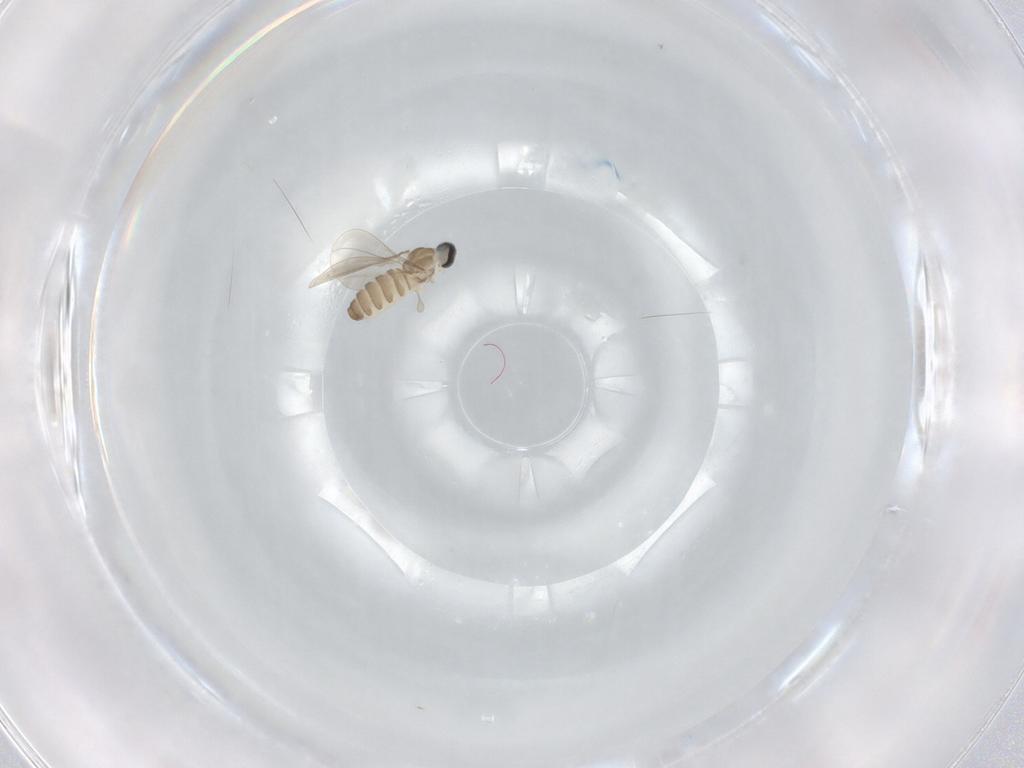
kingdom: Animalia
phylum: Arthropoda
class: Insecta
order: Diptera
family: Cecidomyiidae
